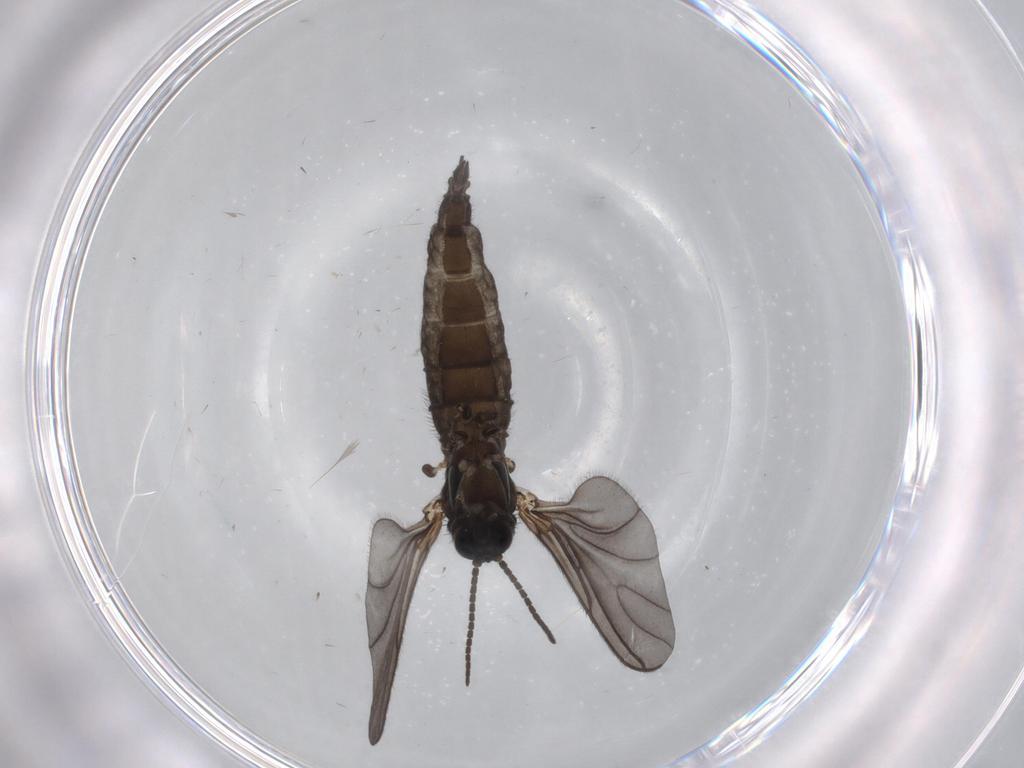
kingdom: Animalia
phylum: Arthropoda
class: Insecta
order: Diptera
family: Sciaridae
